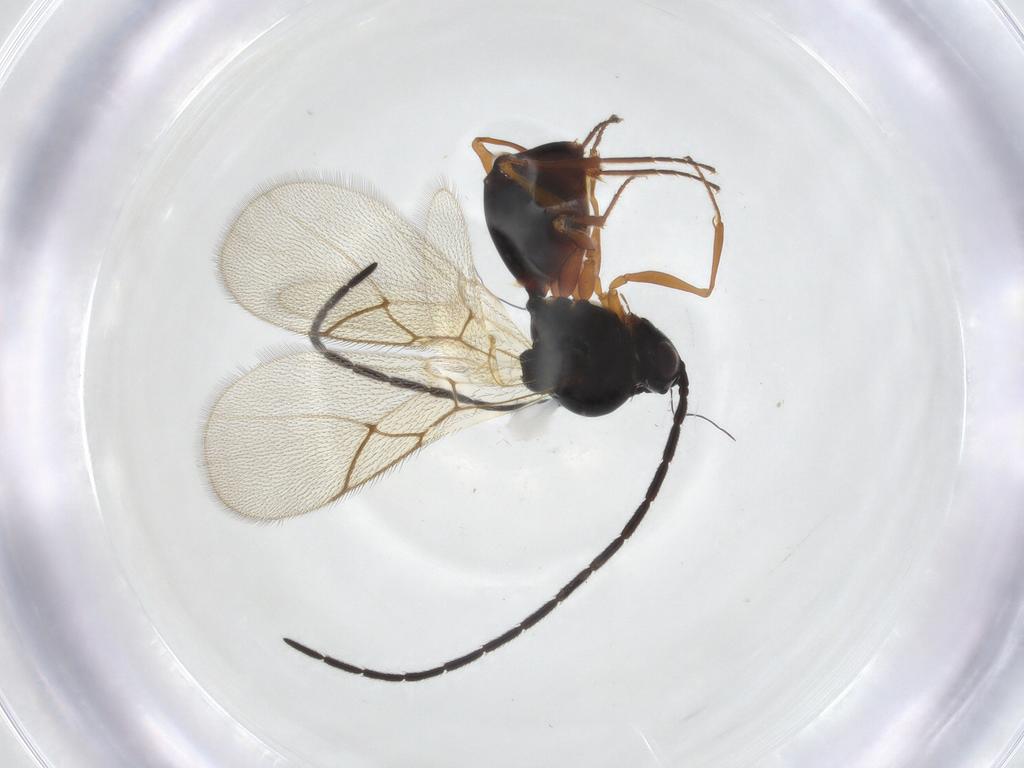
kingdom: Animalia
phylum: Arthropoda
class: Insecta
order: Hymenoptera
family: Figitidae
